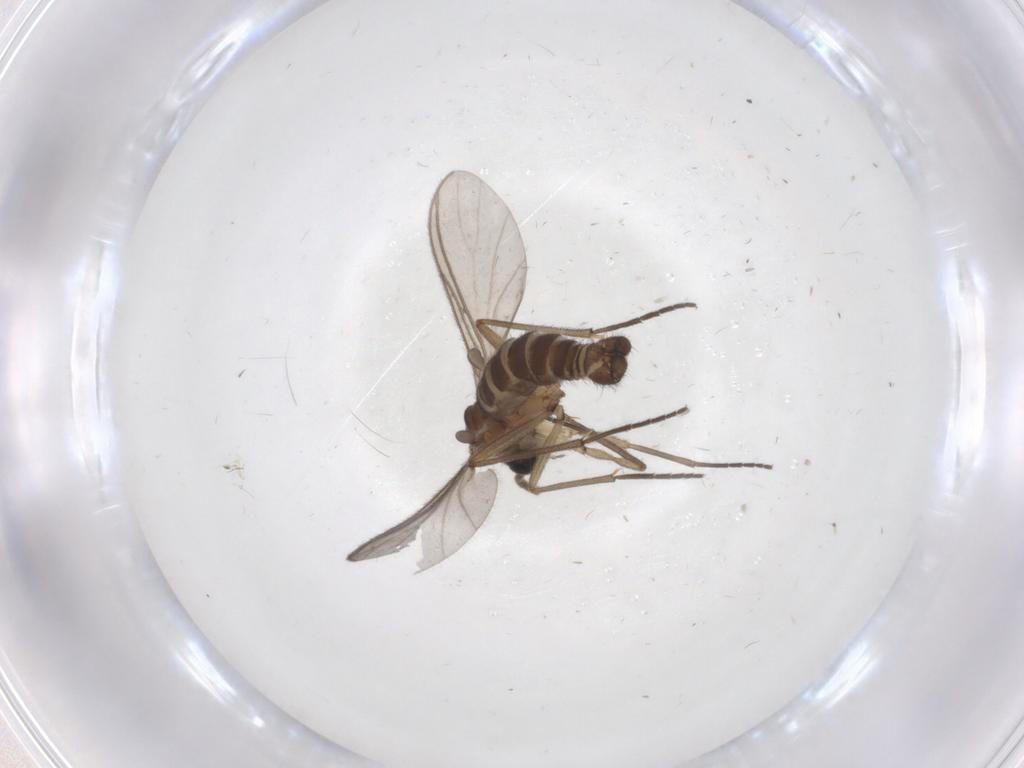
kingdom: Animalia
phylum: Arthropoda
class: Insecta
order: Diptera
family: Sciaridae
